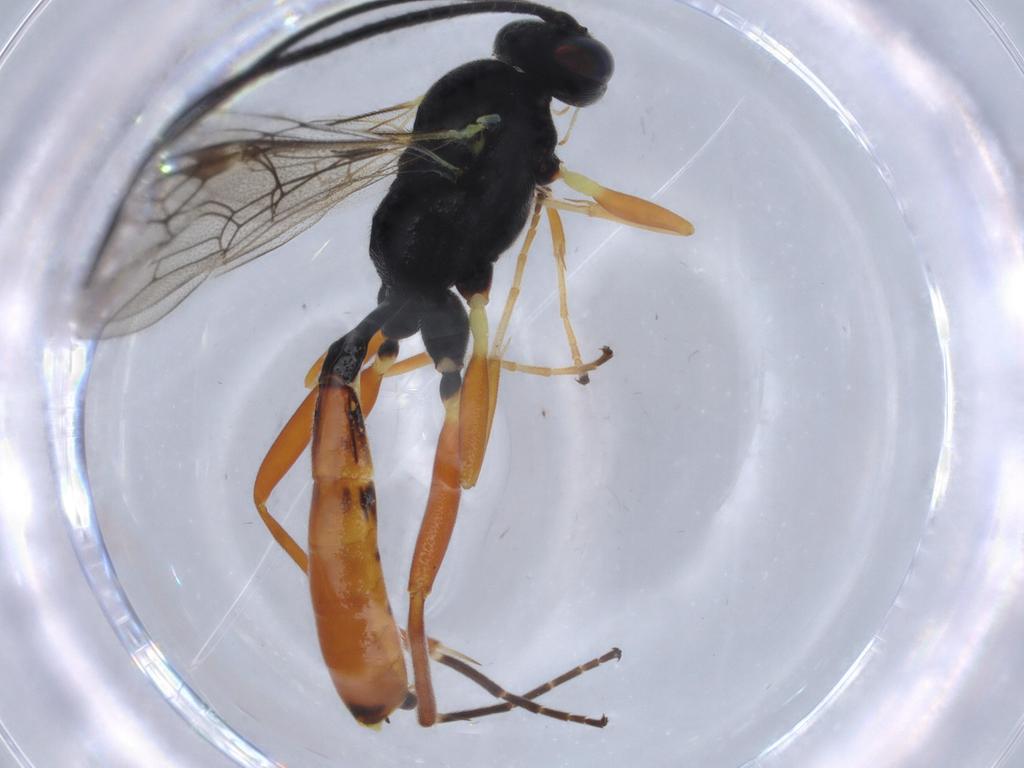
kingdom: Animalia
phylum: Arthropoda
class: Insecta
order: Hymenoptera
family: Ichneumonidae
